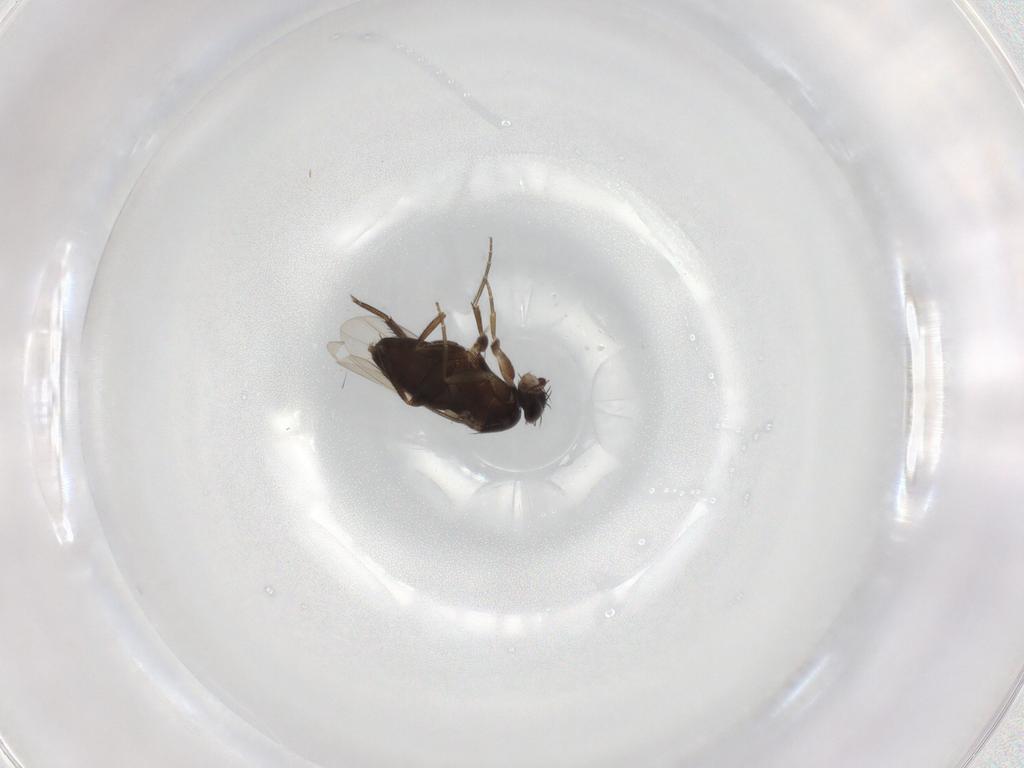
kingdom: Animalia
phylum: Arthropoda
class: Insecta
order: Diptera
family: Phoridae
